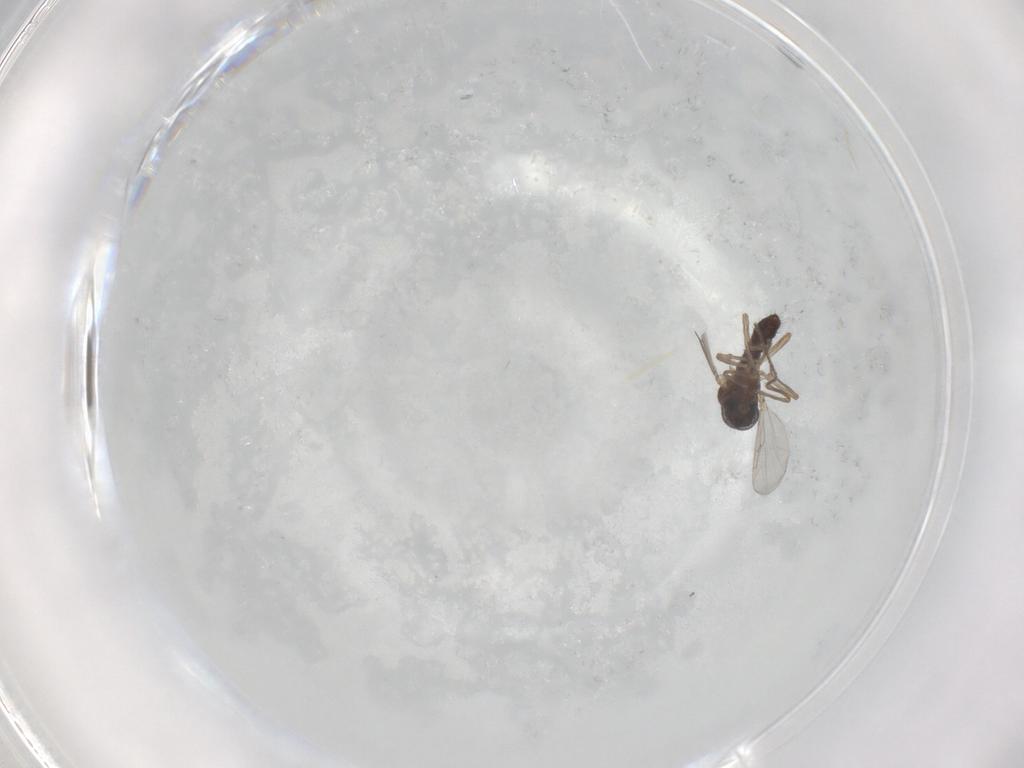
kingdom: Animalia
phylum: Arthropoda
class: Insecta
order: Diptera
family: Ceratopogonidae
